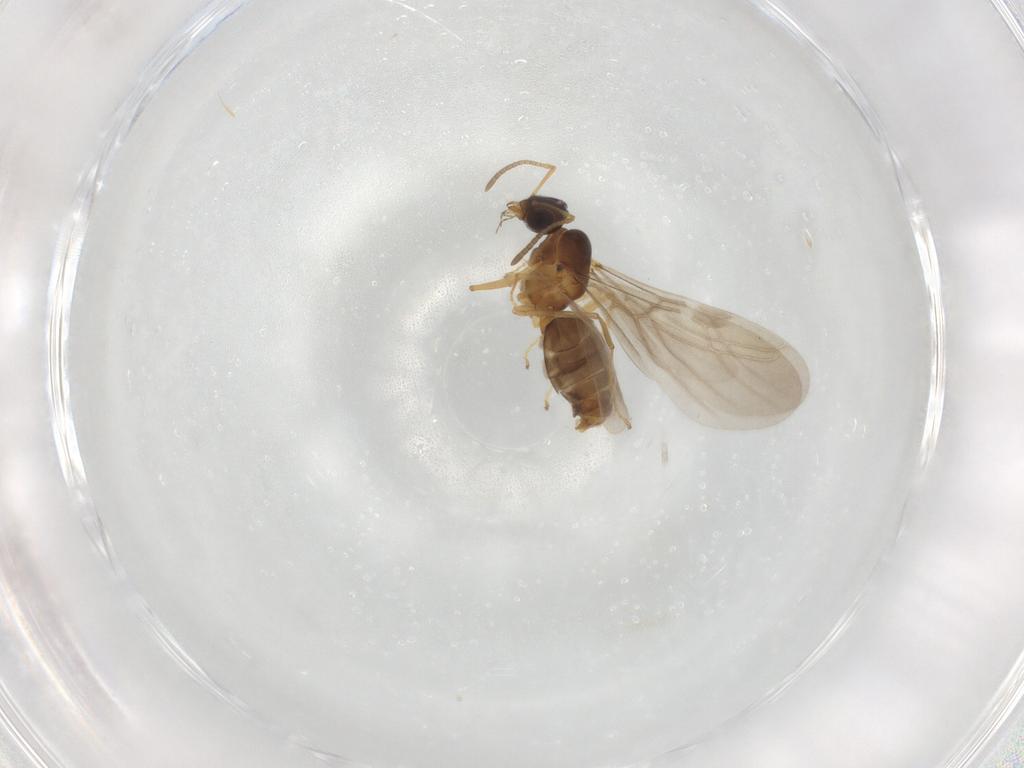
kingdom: Animalia
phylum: Arthropoda
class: Insecta
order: Hymenoptera
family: Formicidae
